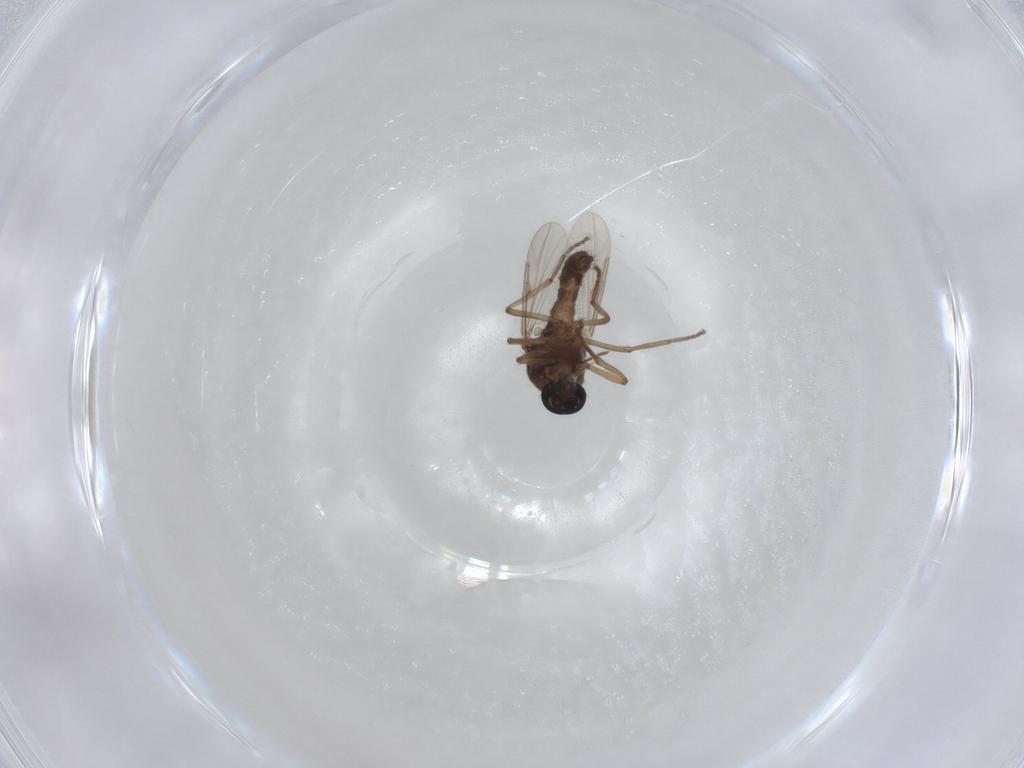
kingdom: Animalia
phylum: Arthropoda
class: Insecta
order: Diptera
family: Ceratopogonidae
